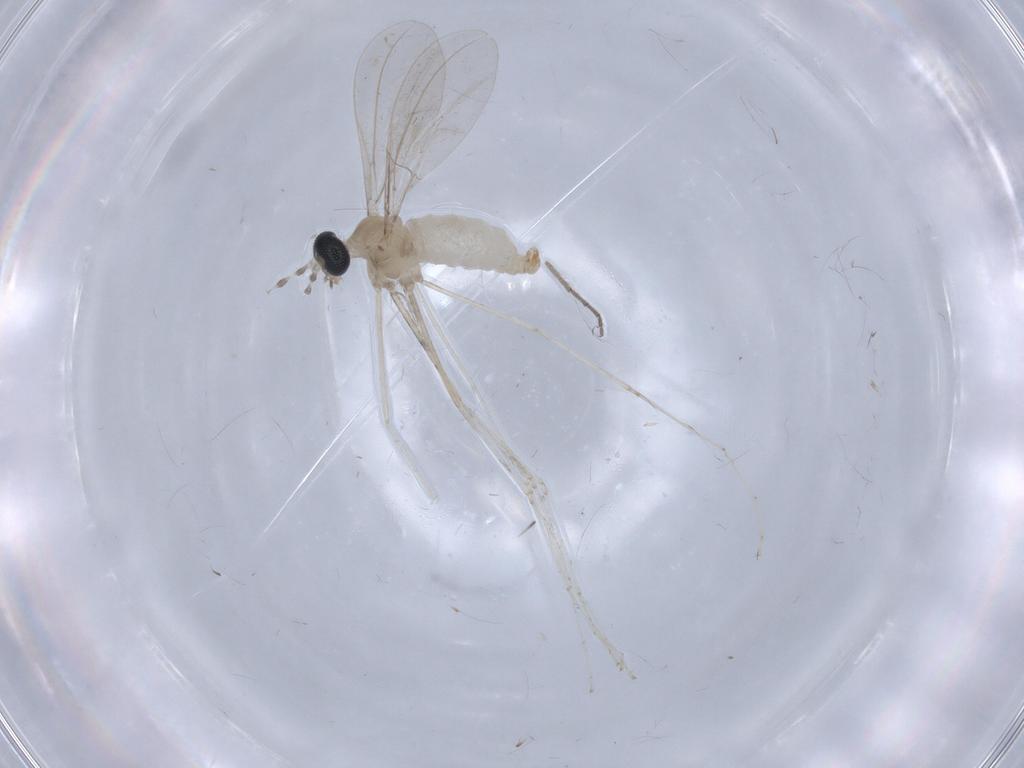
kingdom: Animalia
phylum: Arthropoda
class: Insecta
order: Diptera
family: Cecidomyiidae
